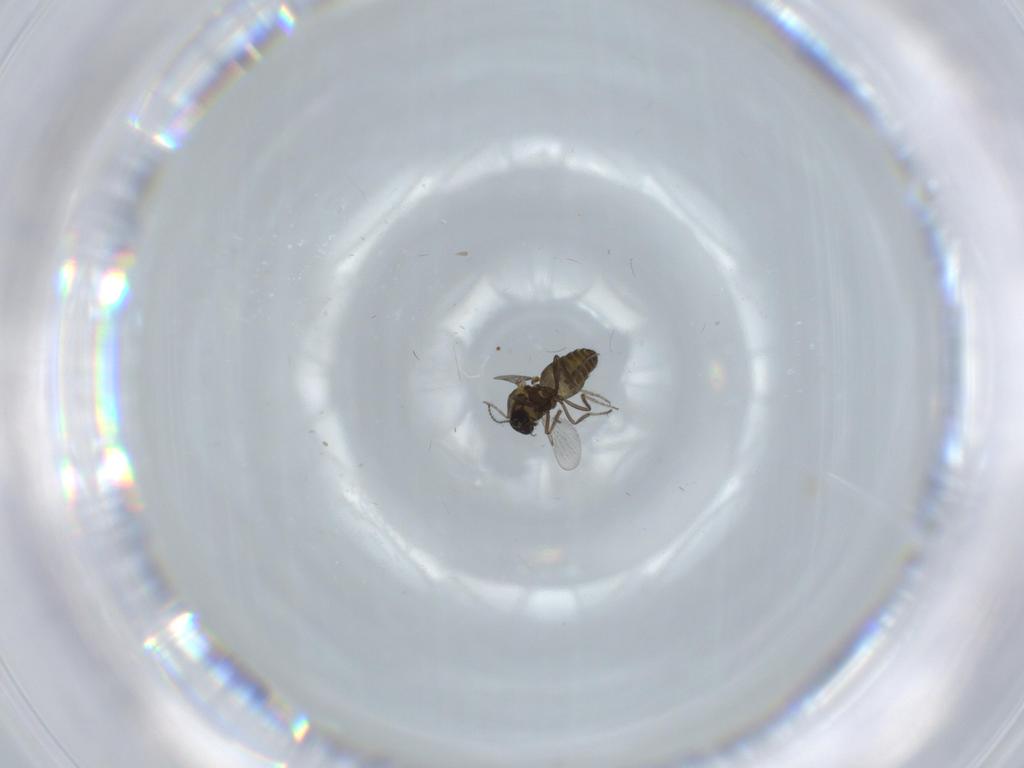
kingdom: Animalia
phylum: Arthropoda
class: Insecta
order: Diptera
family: Ceratopogonidae
